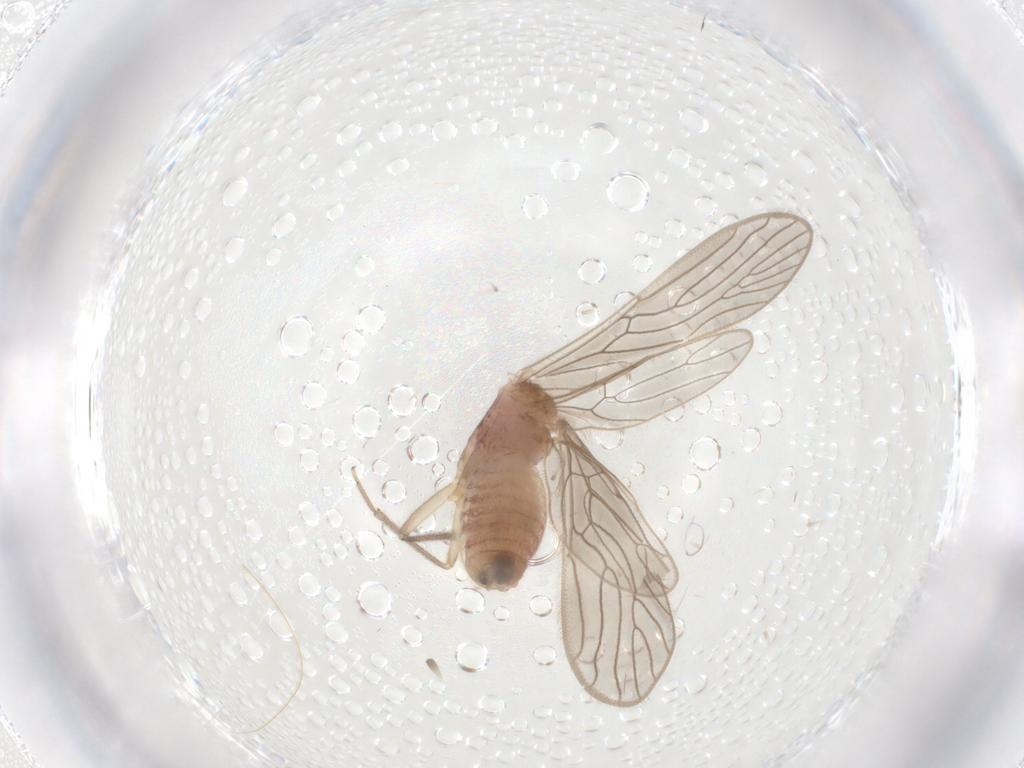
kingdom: Animalia
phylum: Arthropoda
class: Insecta
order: Psocodea
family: Epipsocidae
